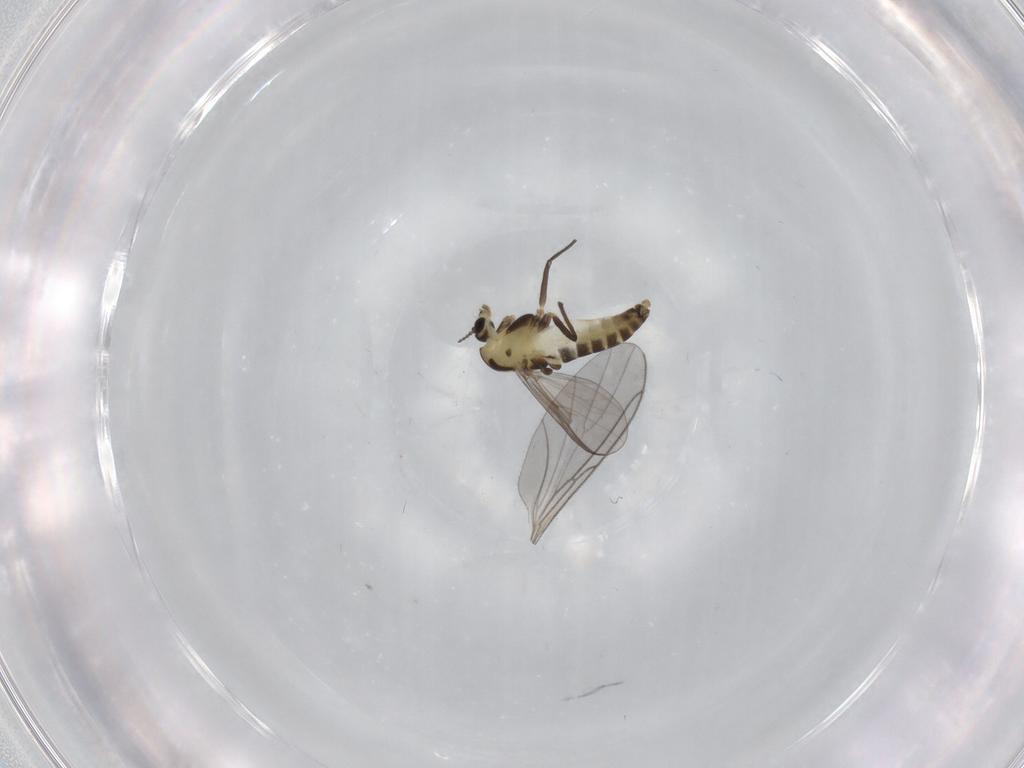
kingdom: Animalia
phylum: Arthropoda
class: Insecta
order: Diptera
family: Chironomidae
